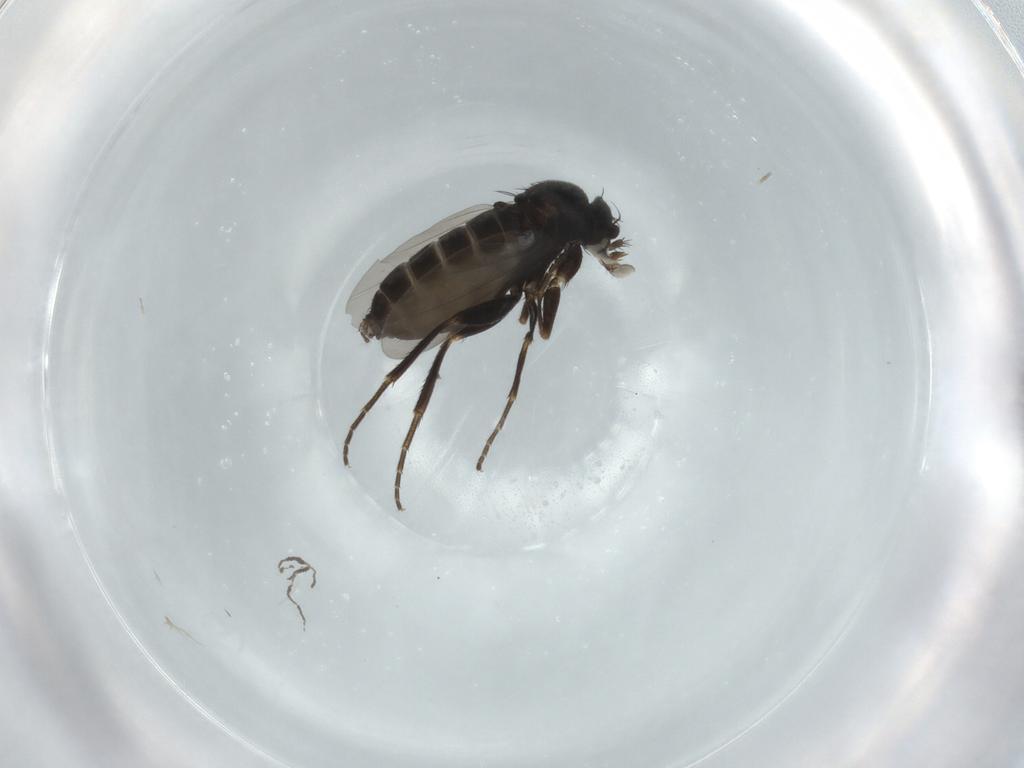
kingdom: Animalia
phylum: Arthropoda
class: Insecta
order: Diptera
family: Phoridae
